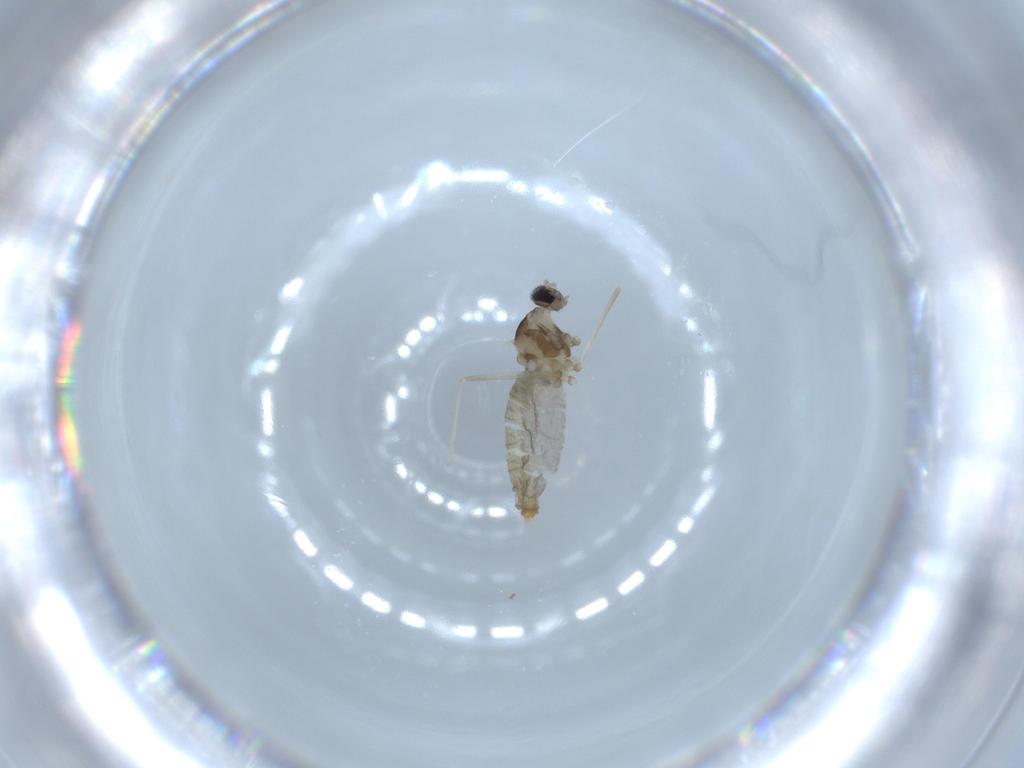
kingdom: Animalia
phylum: Arthropoda
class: Insecta
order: Diptera
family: Cecidomyiidae
